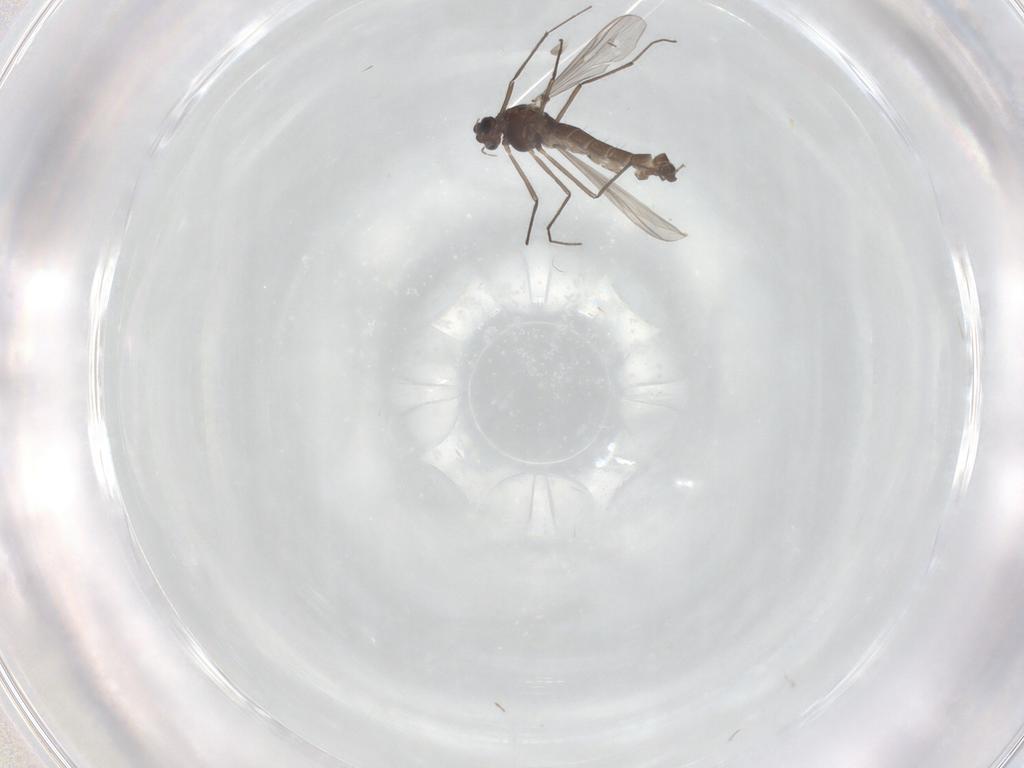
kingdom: Animalia
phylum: Arthropoda
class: Insecta
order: Diptera
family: Chironomidae
